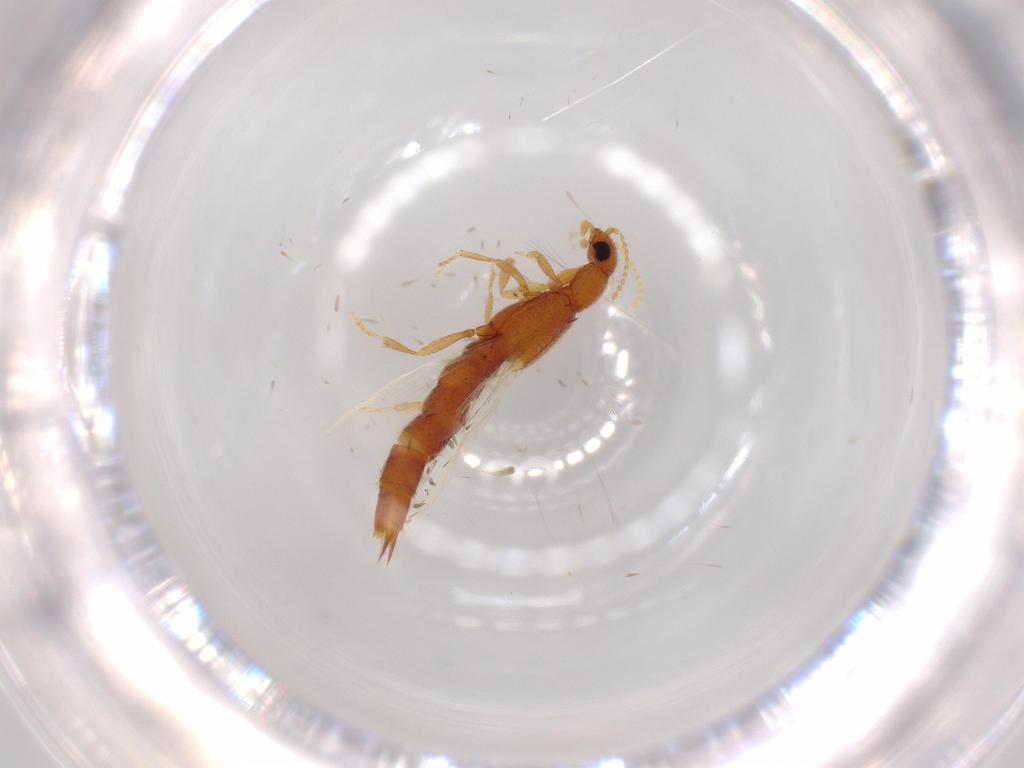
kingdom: Animalia
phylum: Arthropoda
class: Insecta
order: Coleoptera
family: Staphylinidae
